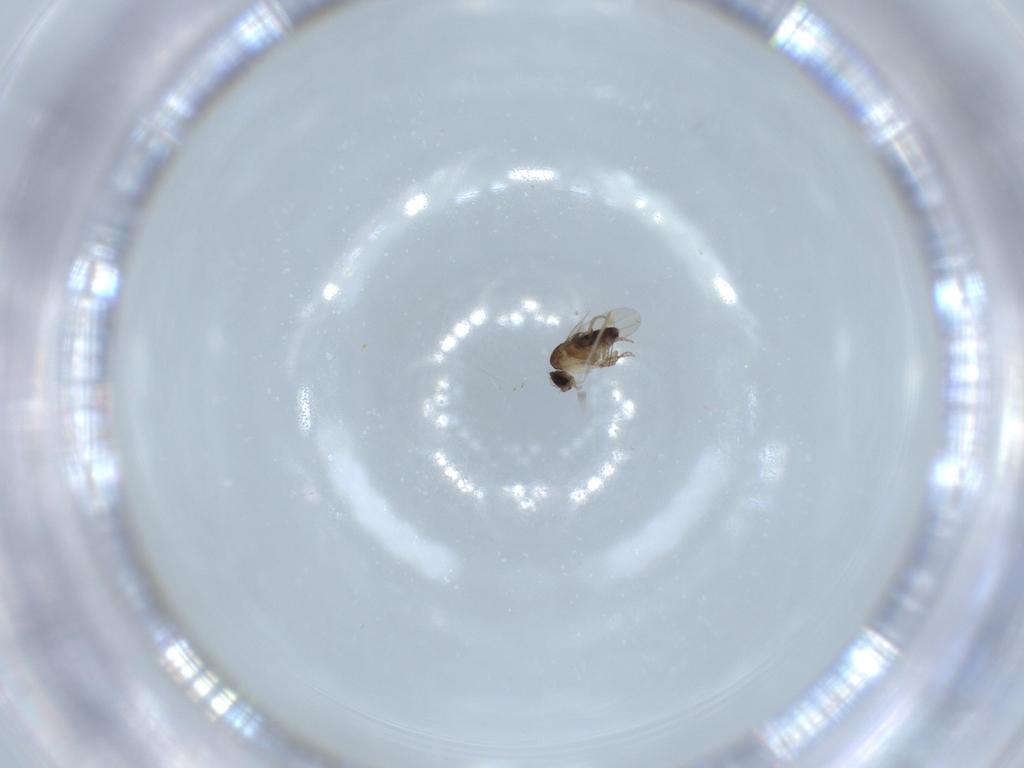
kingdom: Animalia
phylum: Arthropoda
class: Insecta
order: Diptera
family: Phoridae
